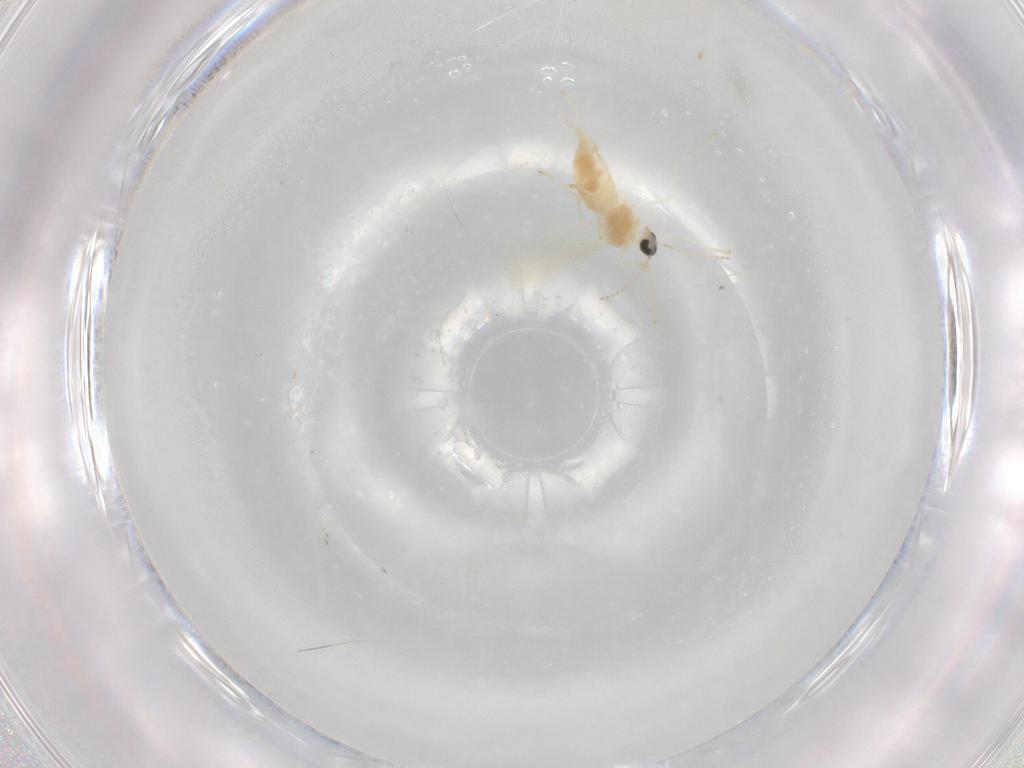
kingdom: Animalia
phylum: Arthropoda
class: Insecta
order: Diptera
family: Cecidomyiidae
